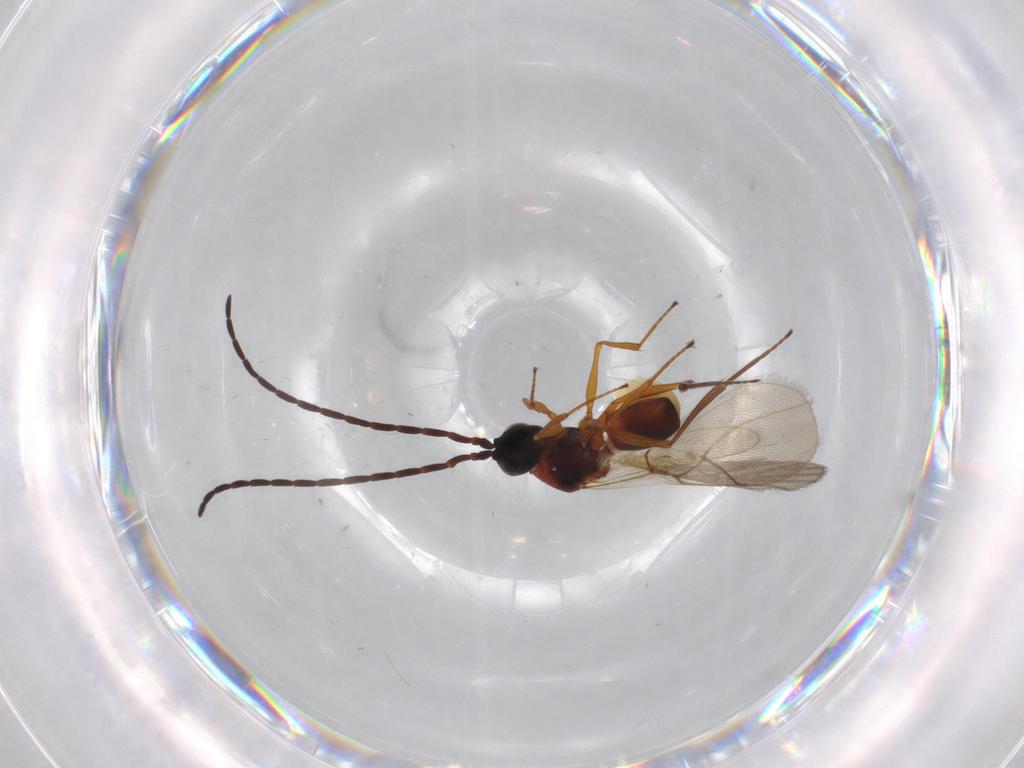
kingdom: Animalia
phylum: Arthropoda
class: Insecta
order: Hymenoptera
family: Figitidae
